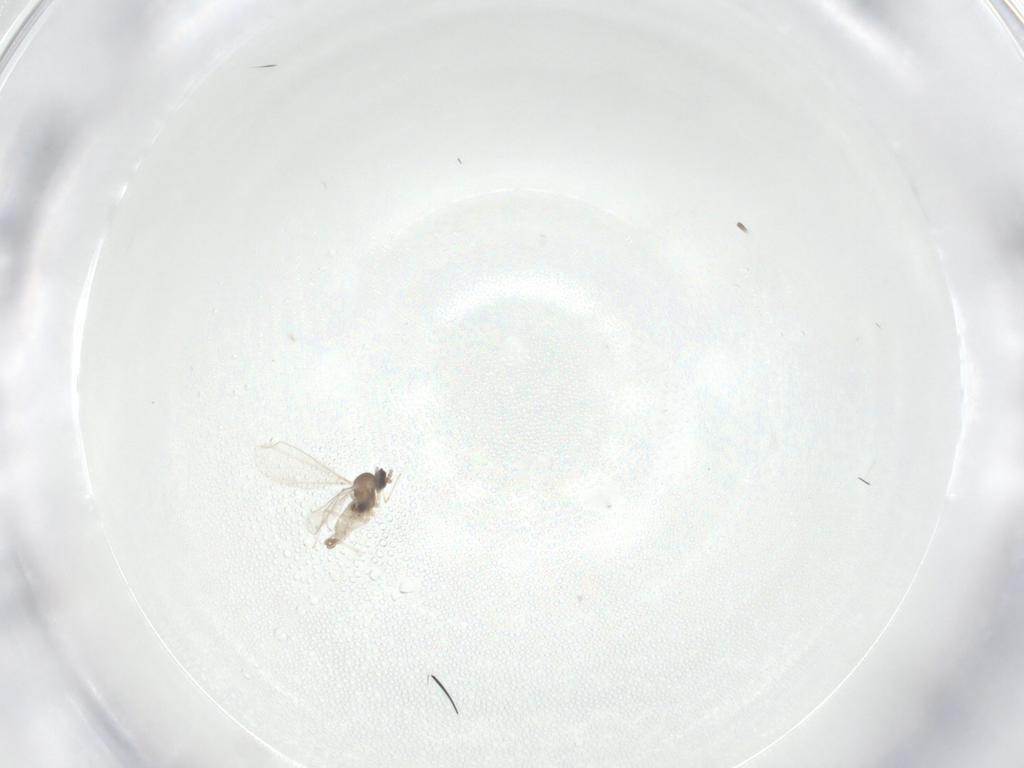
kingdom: Animalia
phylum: Arthropoda
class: Insecta
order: Diptera
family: Cecidomyiidae
